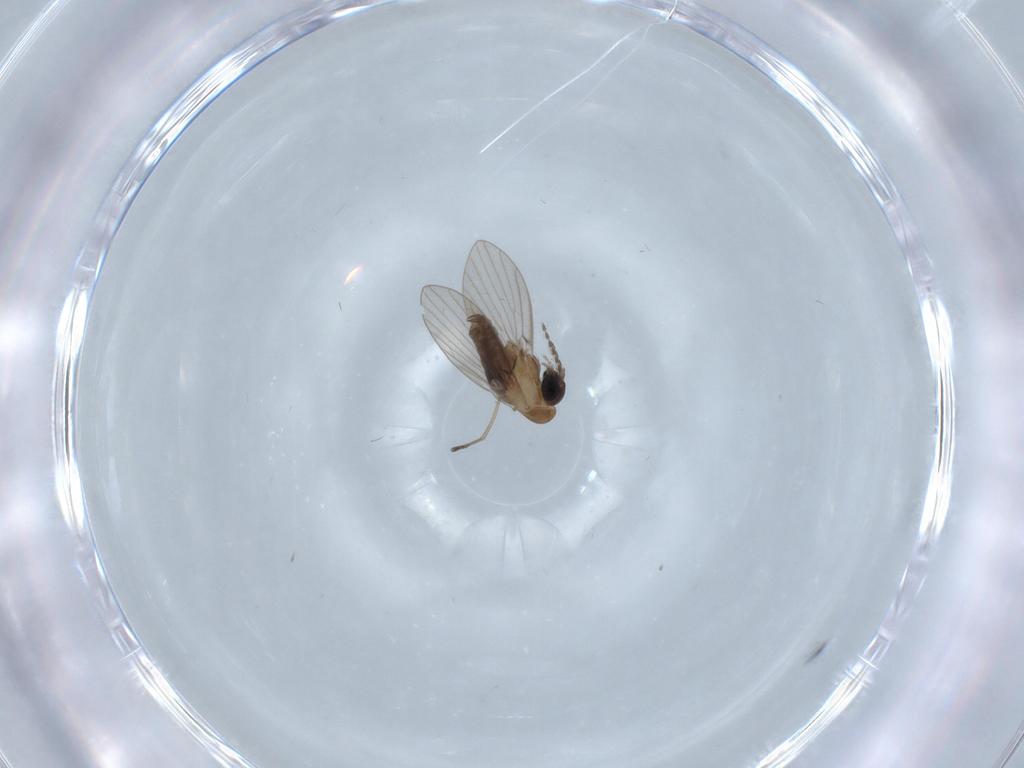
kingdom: Animalia
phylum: Arthropoda
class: Insecta
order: Diptera
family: Psychodidae
